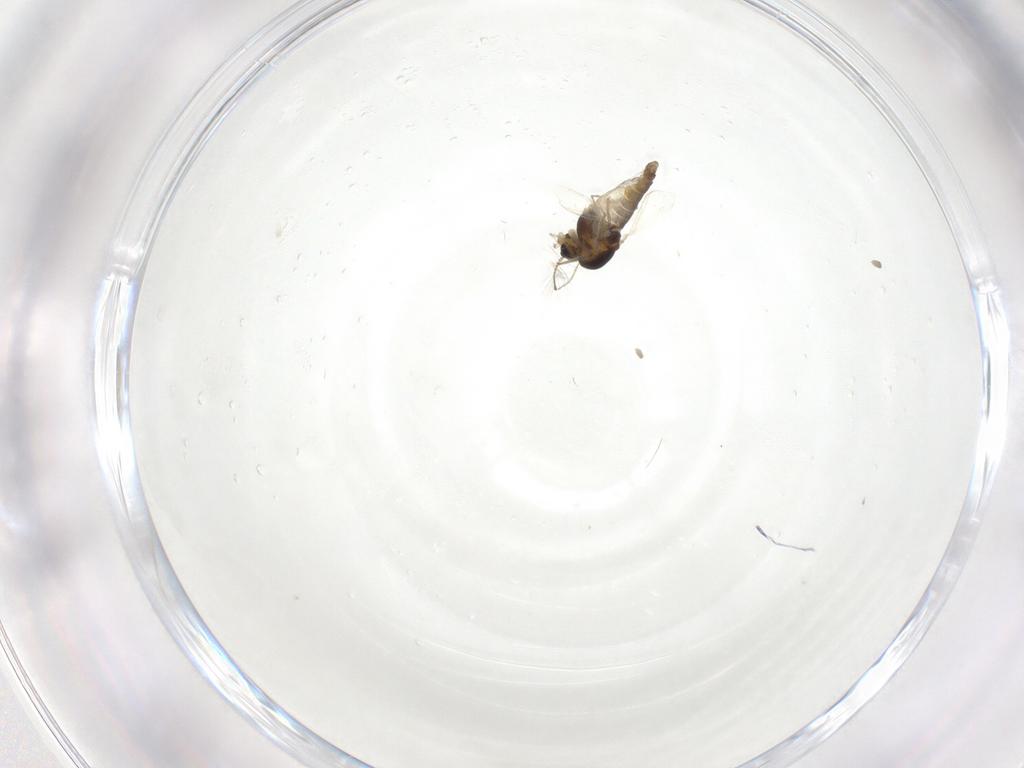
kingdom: Animalia
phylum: Arthropoda
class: Insecta
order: Diptera
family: Chironomidae
